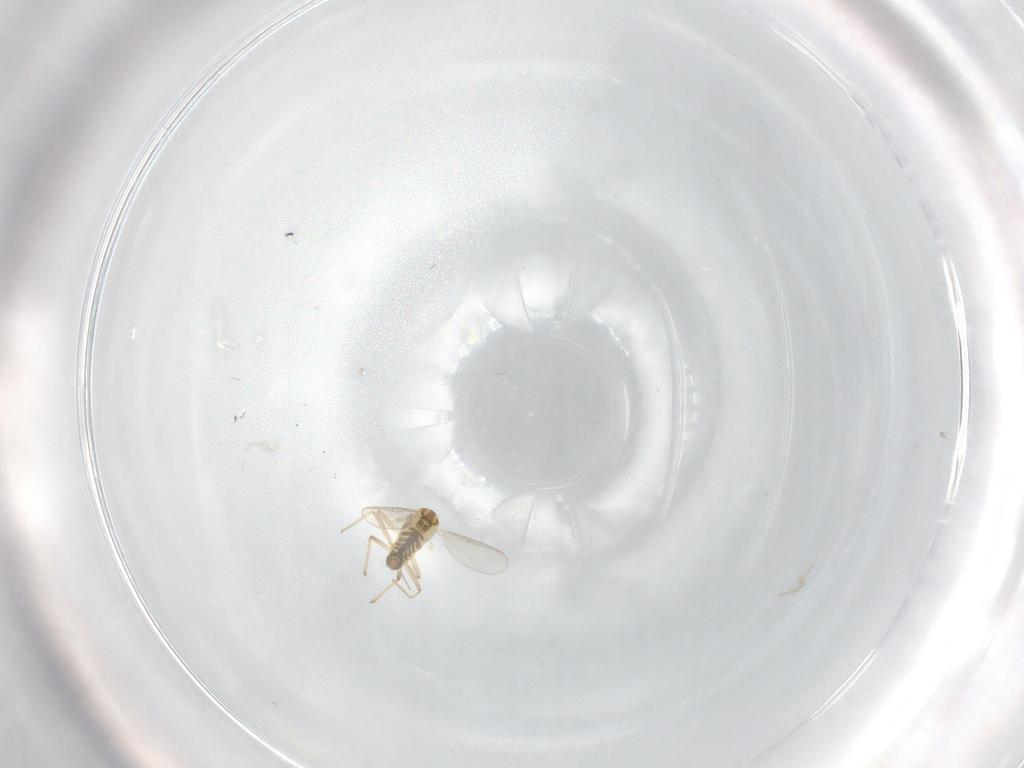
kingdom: Animalia
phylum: Arthropoda
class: Insecta
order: Diptera
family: Chironomidae
